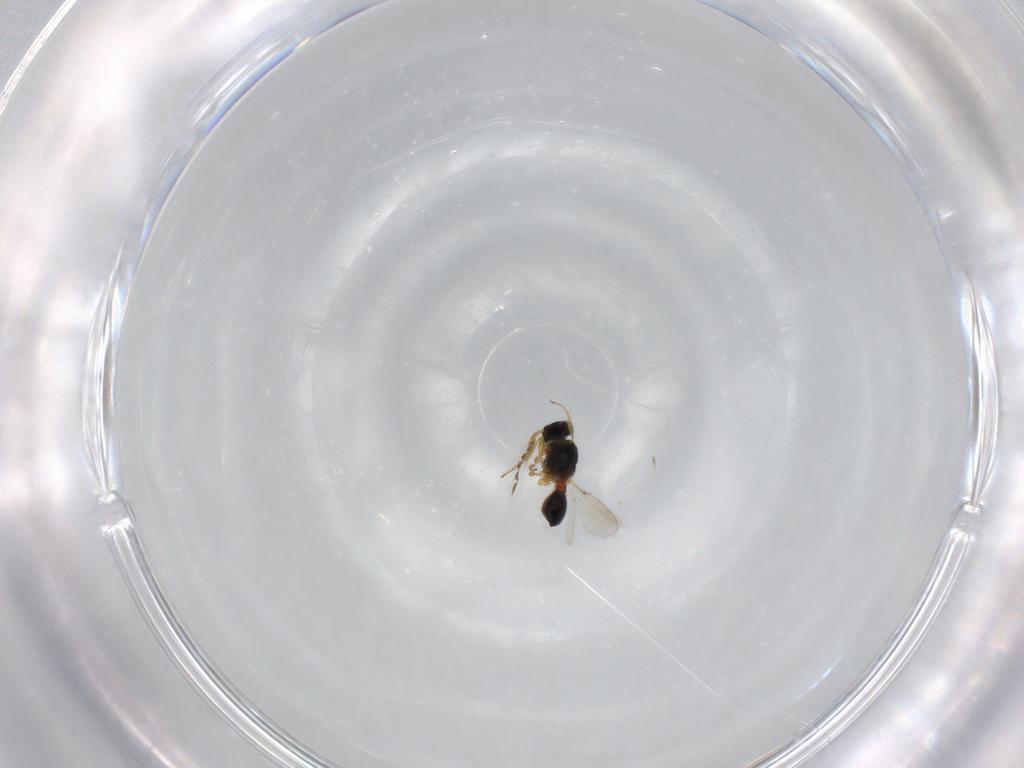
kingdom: Animalia
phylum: Arthropoda
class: Insecta
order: Hymenoptera
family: Platygastridae
